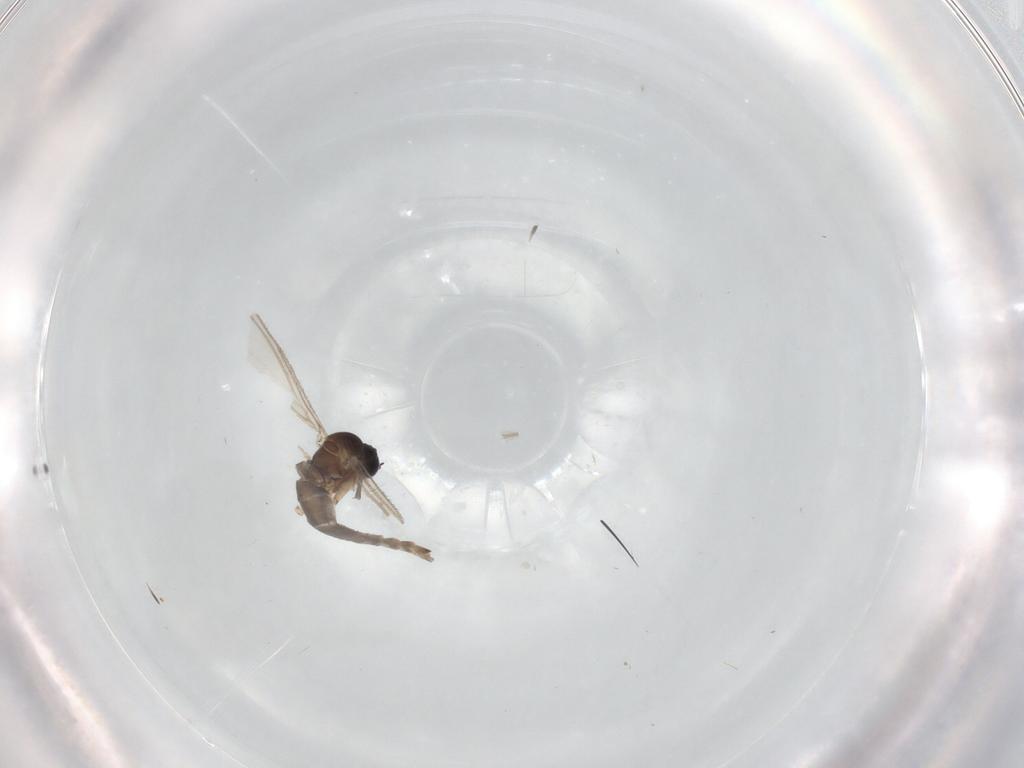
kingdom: Animalia
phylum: Arthropoda
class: Insecta
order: Diptera
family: Sciaridae
